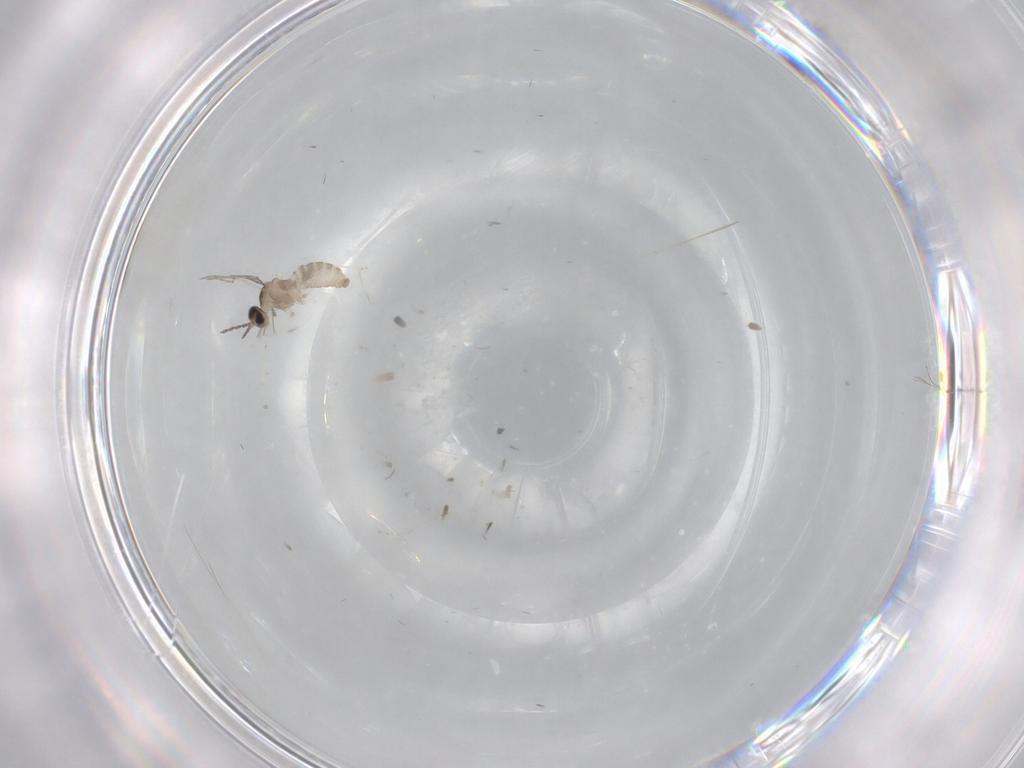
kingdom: Animalia
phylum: Arthropoda
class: Insecta
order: Diptera
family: Cecidomyiidae
